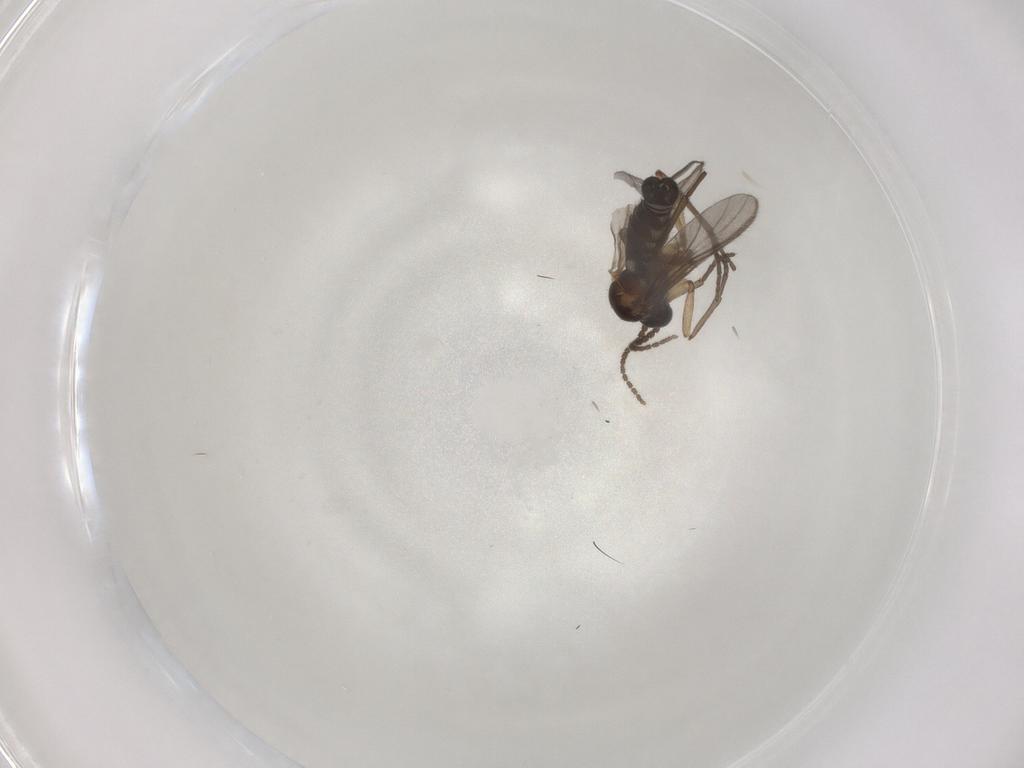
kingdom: Animalia
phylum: Arthropoda
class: Insecta
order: Diptera
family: Sciaridae
